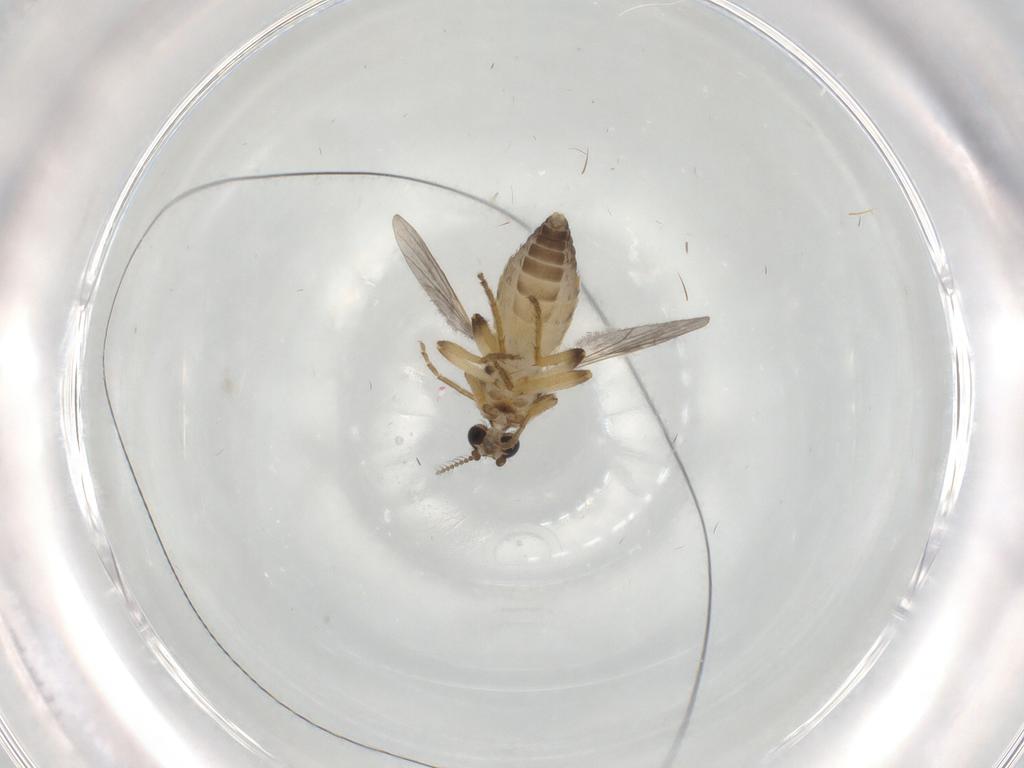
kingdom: Animalia
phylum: Arthropoda
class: Insecta
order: Diptera
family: Ceratopogonidae
